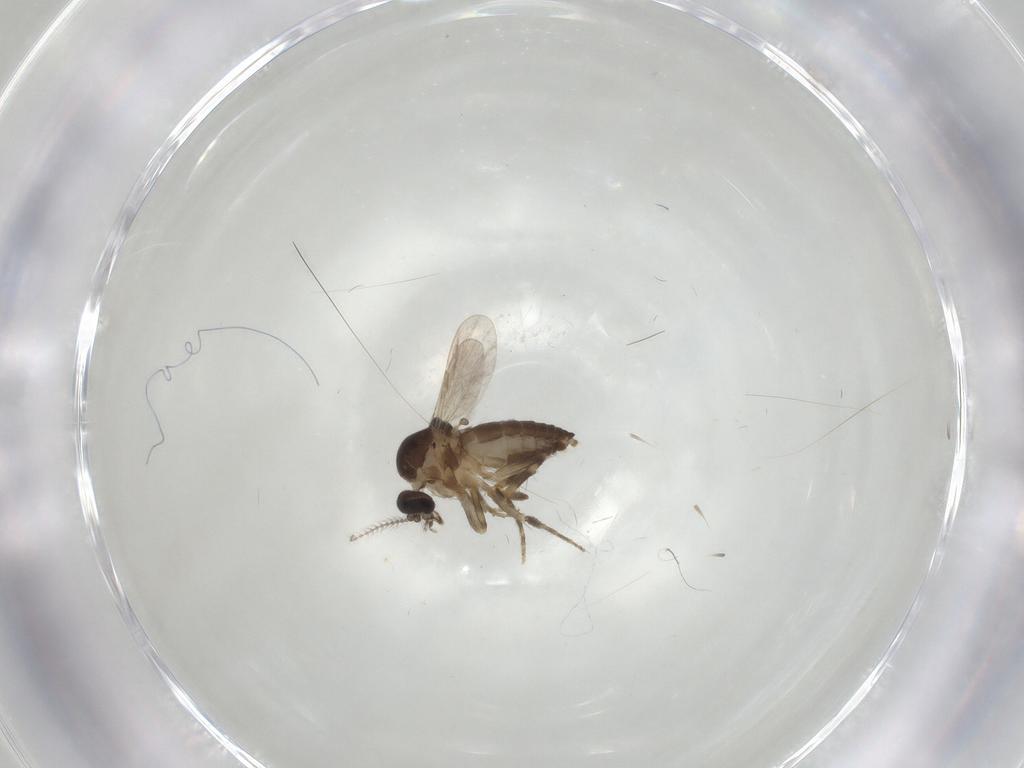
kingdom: Animalia
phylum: Arthropoda
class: Insecta
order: Diptera
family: Ceratopogonidae
